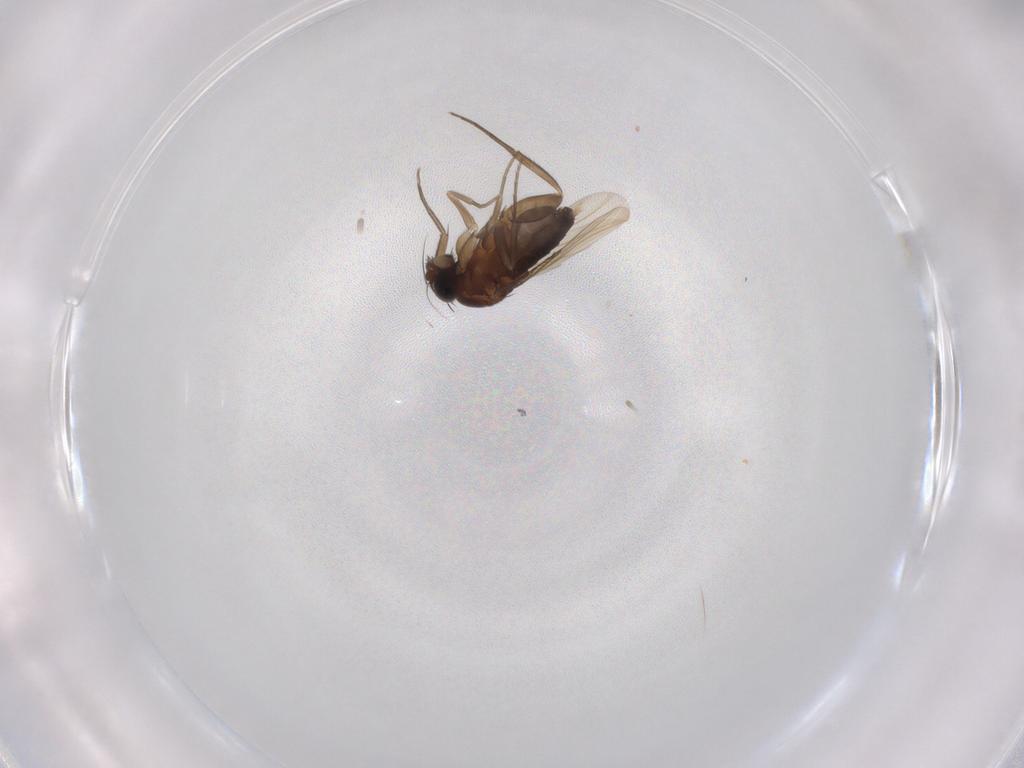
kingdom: Animalia
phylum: Arthropoda
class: Insecta
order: Diptera
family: Phoridae
